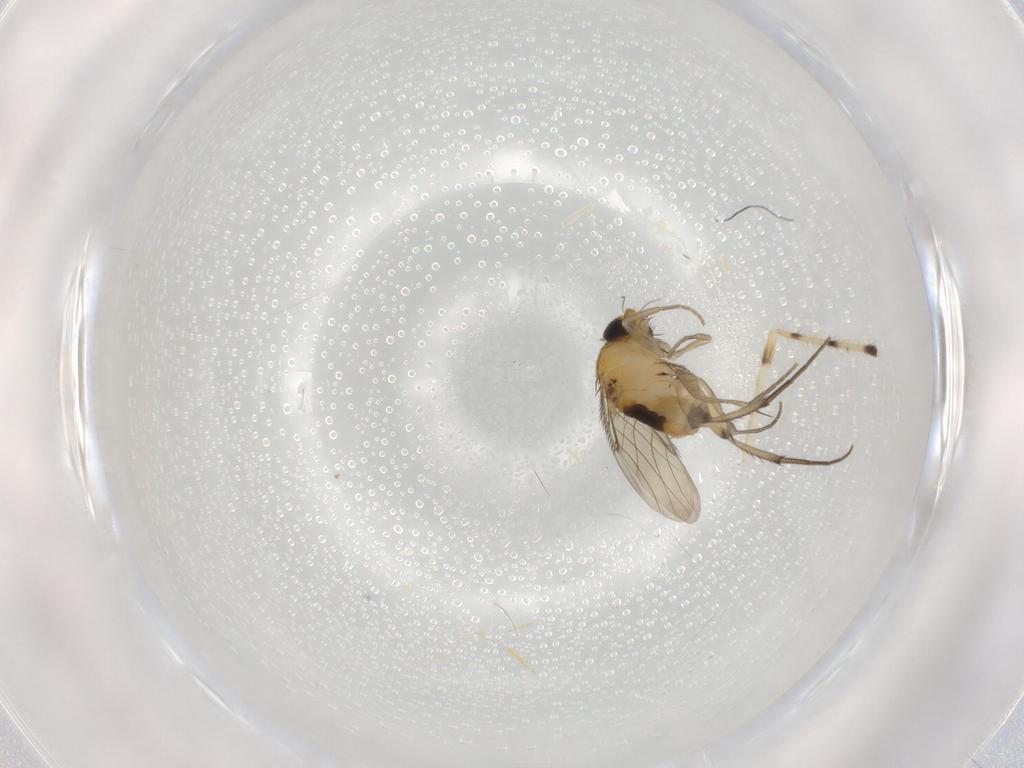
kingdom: Animalia
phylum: Arthropoda
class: Insecta
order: Diptera
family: Phoridae
